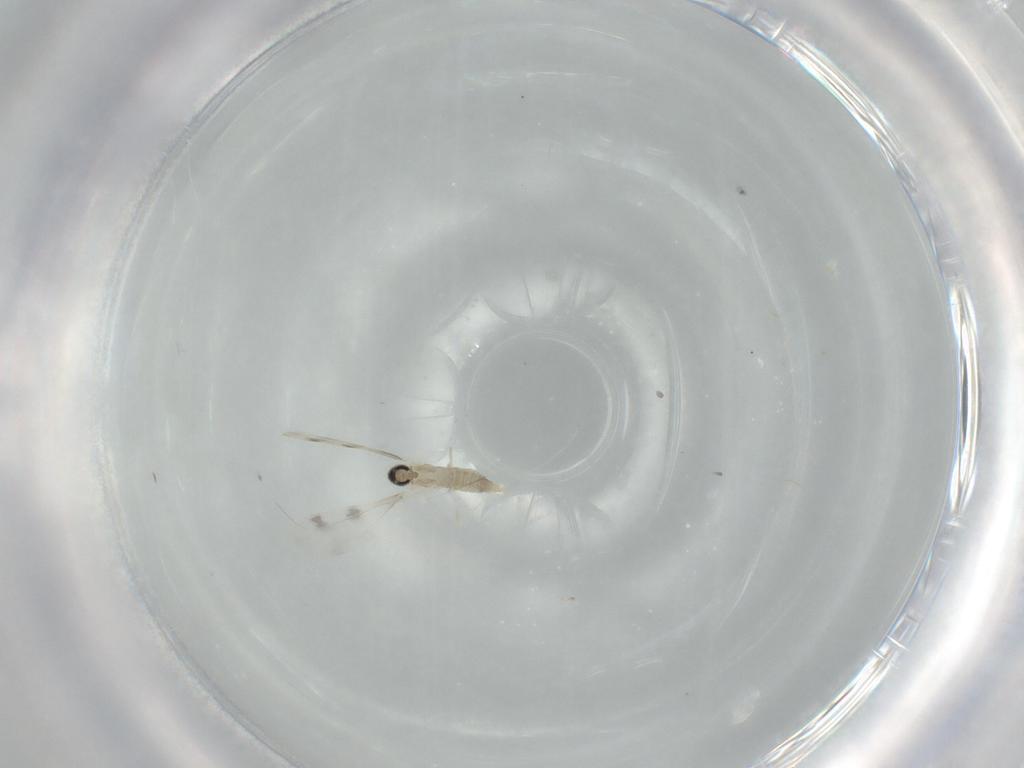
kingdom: Animalia
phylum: Arthropoda
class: Insecta
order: Diptera
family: Cecidomyiidae
